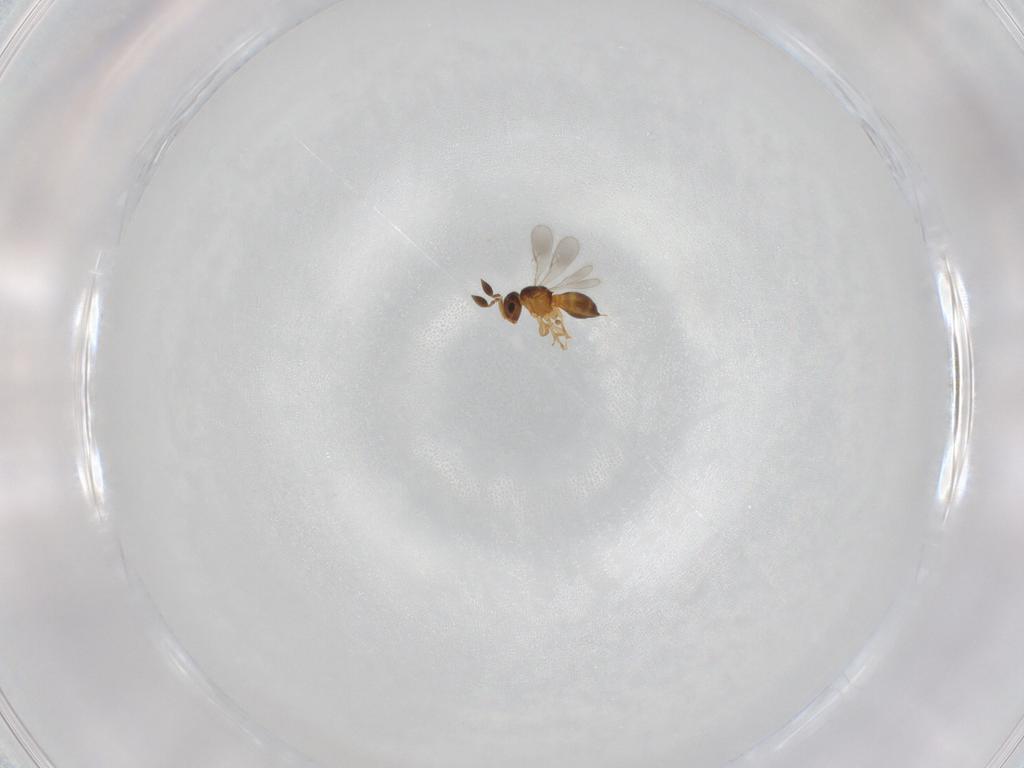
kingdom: Animalia
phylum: Arthropoda
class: Insecta
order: Hymenoptera
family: Scelionidae
